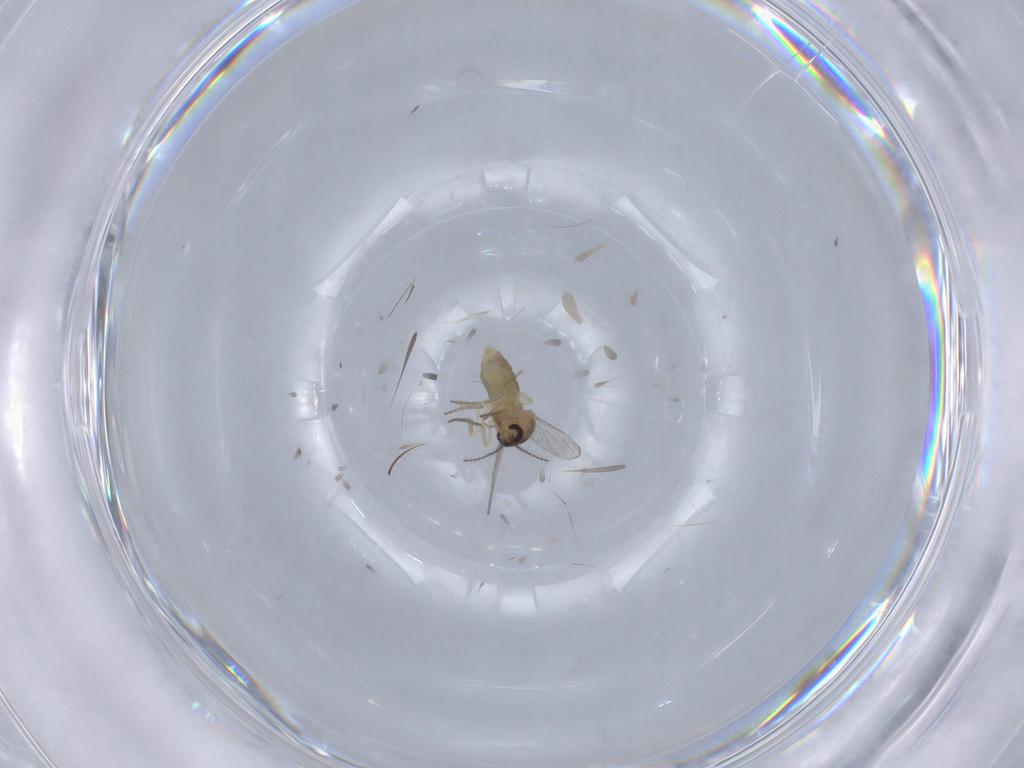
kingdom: Animalia
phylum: Arthropoda
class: Insecta
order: Diptera
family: Ceratopogonidae
